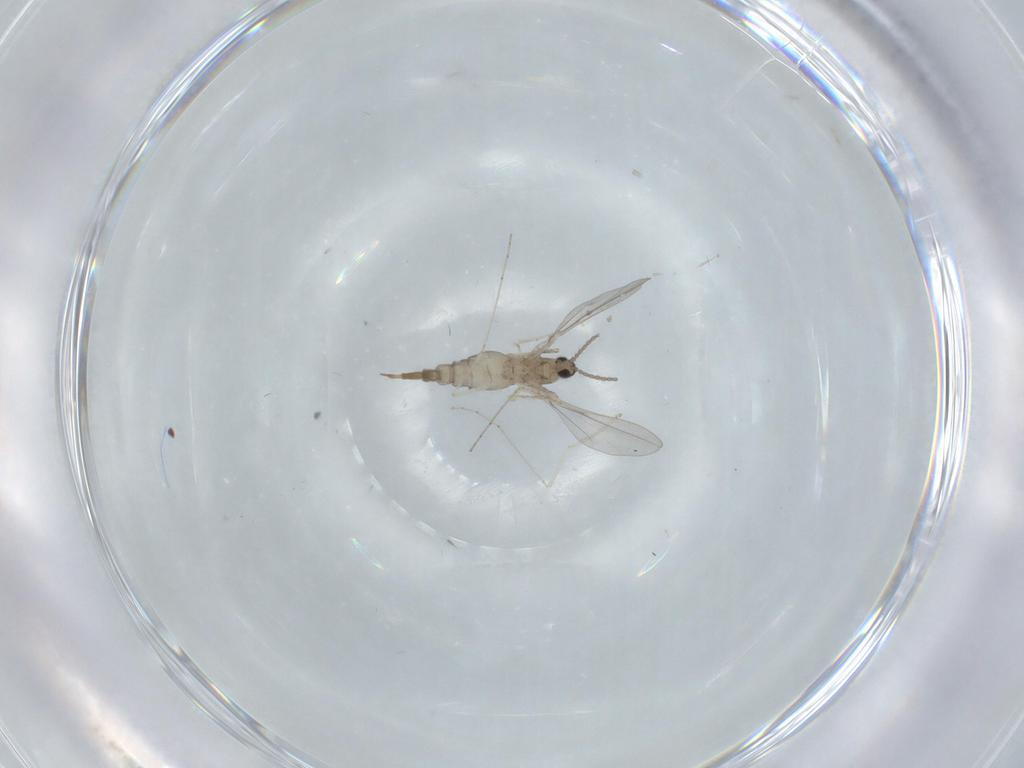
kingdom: Animalia
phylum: Arthropoda
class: Insecta
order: Diptera
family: Cecidomyiidae
